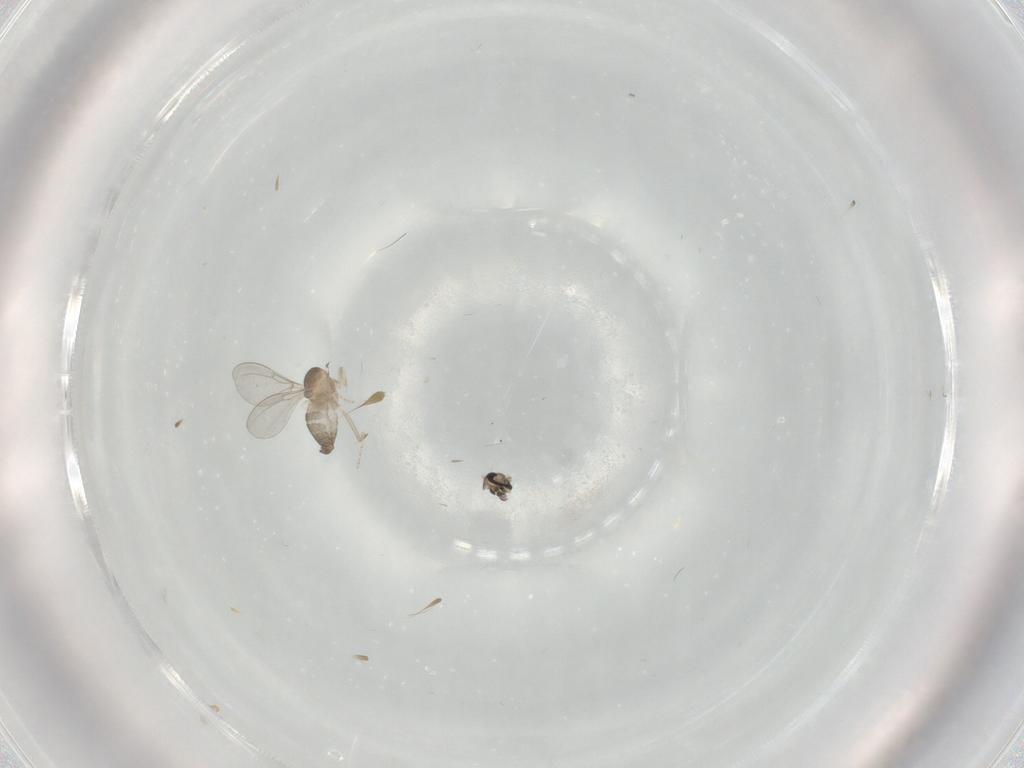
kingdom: Animalia
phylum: Arthropoda
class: Insecta
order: Diptera
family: Cecidomyiidae
